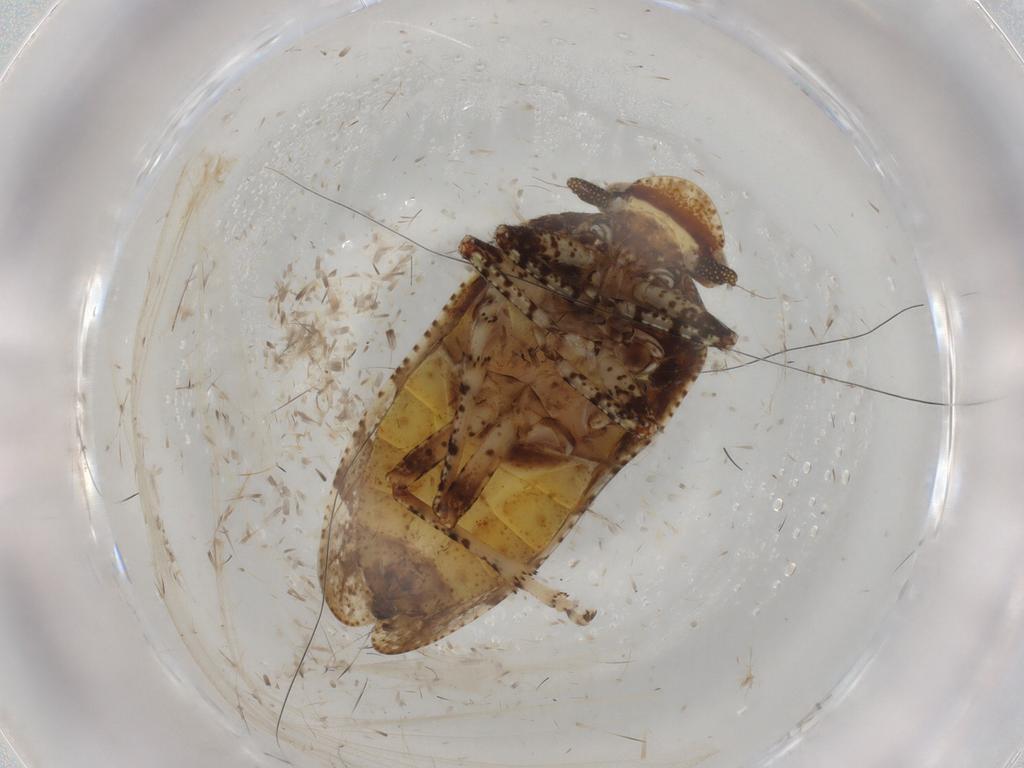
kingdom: Animalia
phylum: Arthropoda
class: Insecta
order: Hemiptera
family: Tettigometridae
